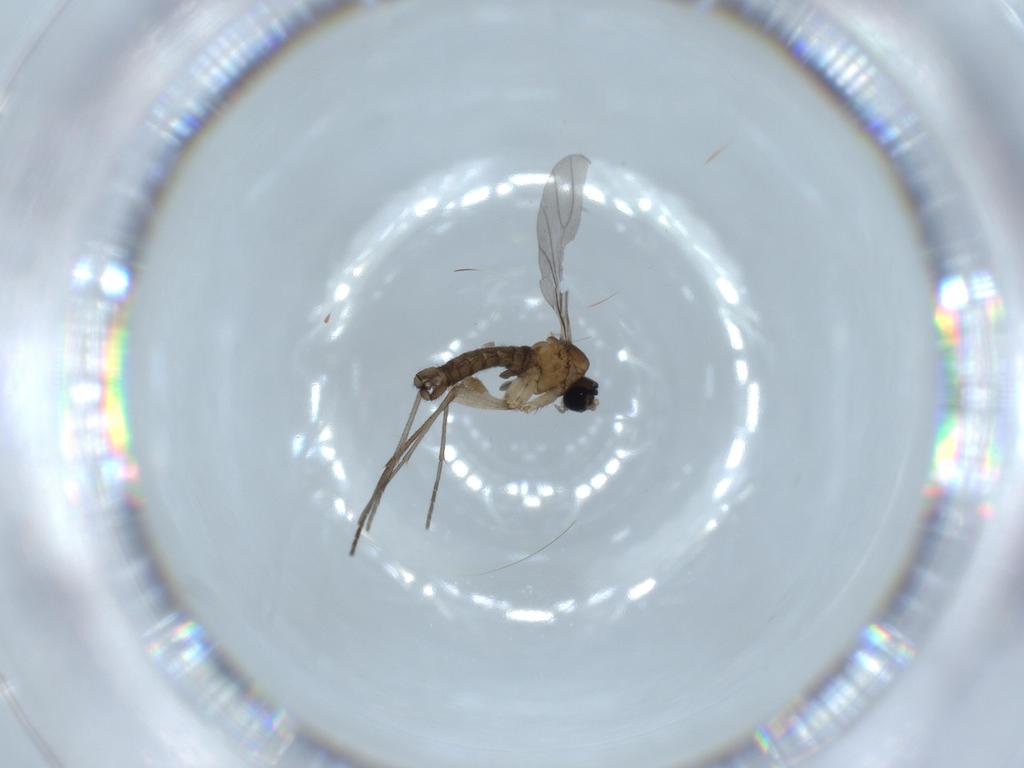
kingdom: Animalia
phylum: Arthropoda
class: Insecta
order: Diptera
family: Sciaridae
